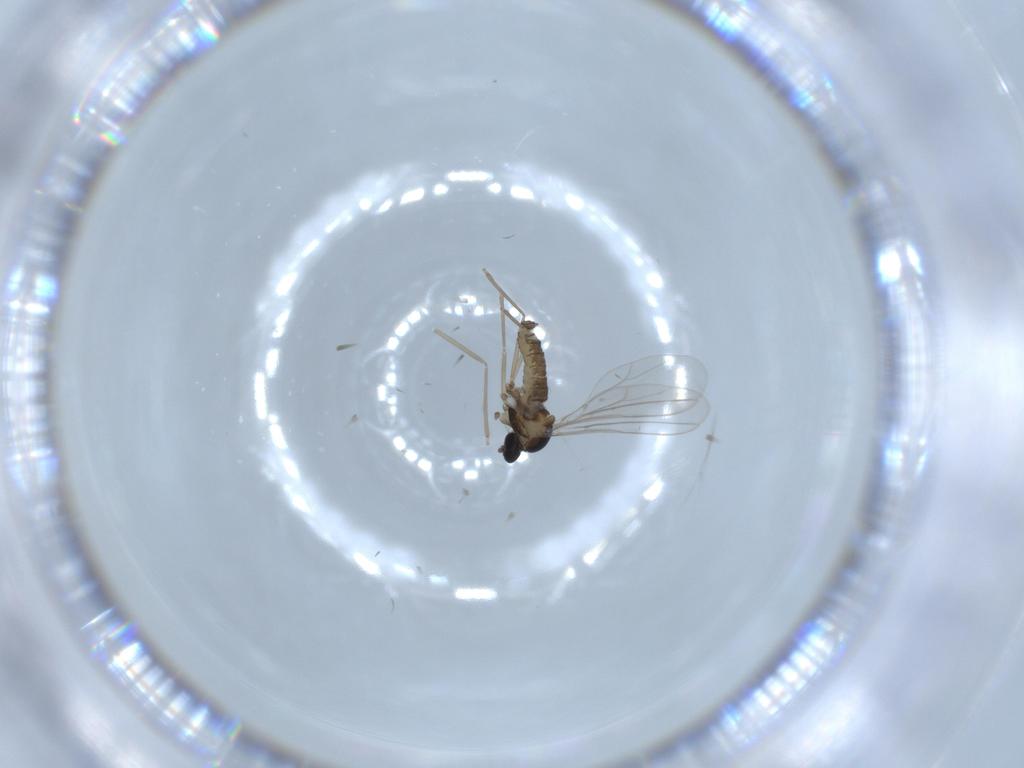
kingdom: Animalia
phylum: Arthropoda
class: Insecta
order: Diptera
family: Cecidomyiidae
